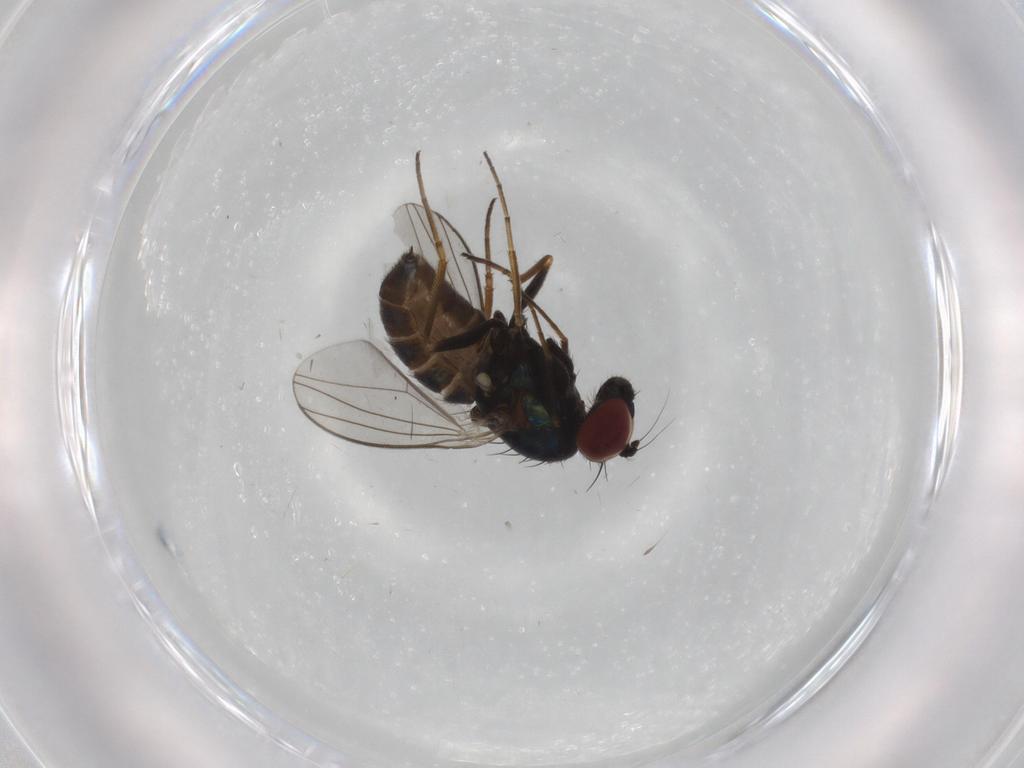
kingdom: Animalia
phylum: Arthropoda
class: Insecta
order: Diptera
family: Dolichopodidae
